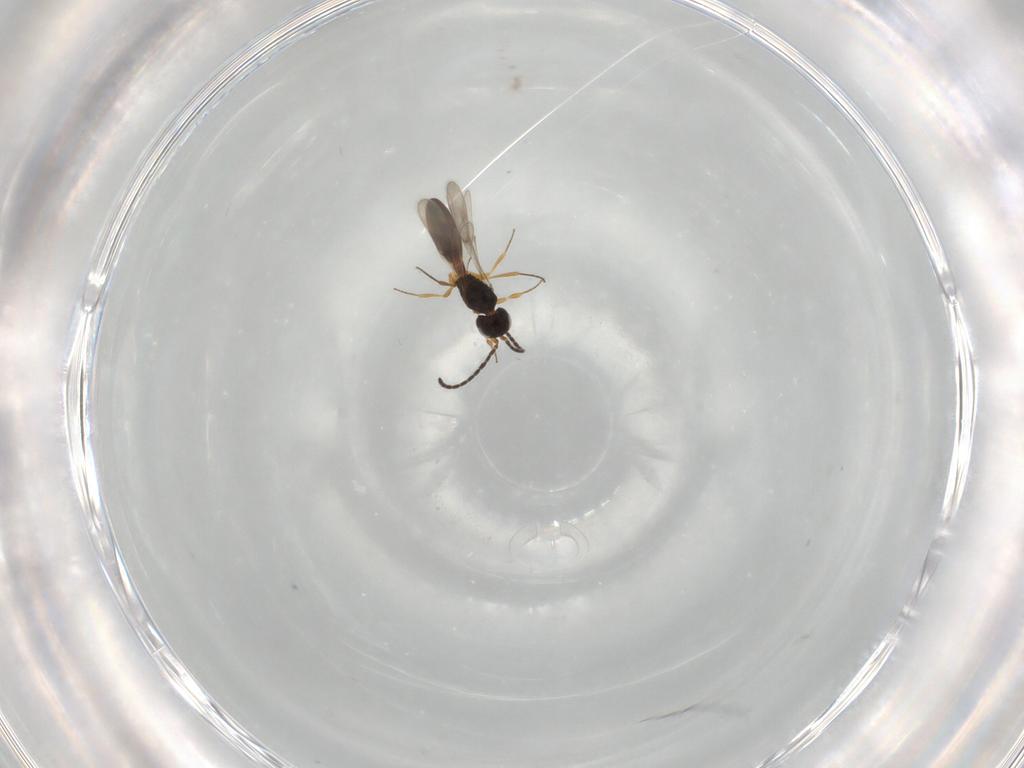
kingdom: Animalia
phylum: Arthropoda
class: Insecta
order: Hymenoptera
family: Scelionidae
